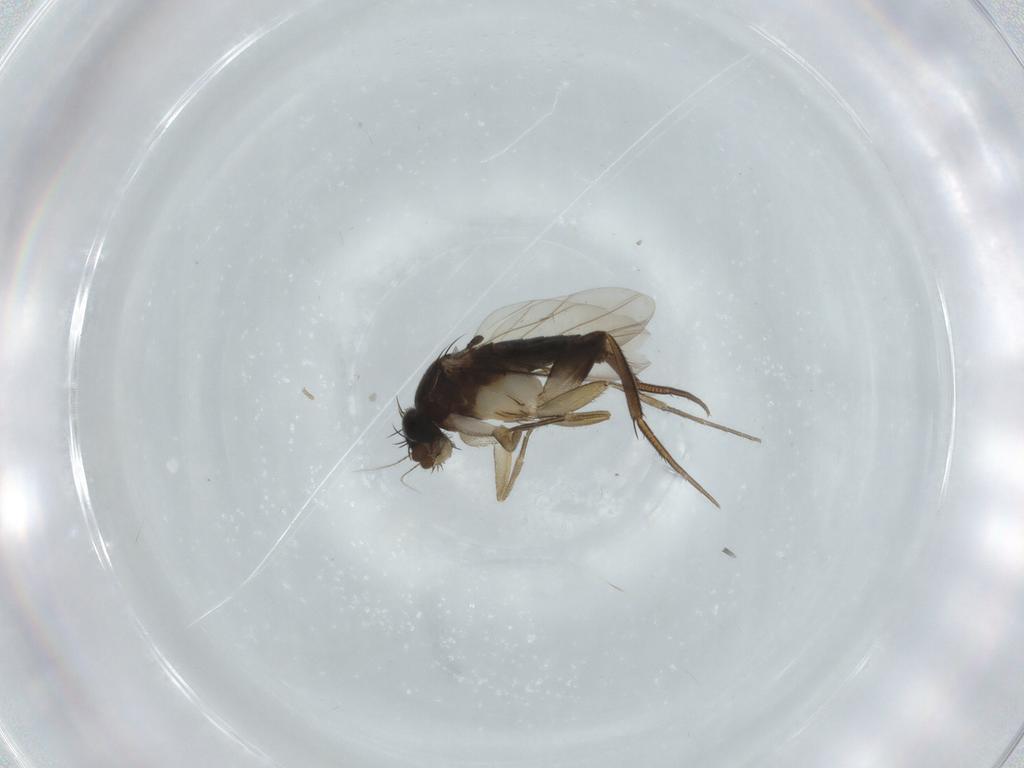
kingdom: Animalia
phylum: Arthropoda
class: Insecta
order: Diptera
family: Phoridae
